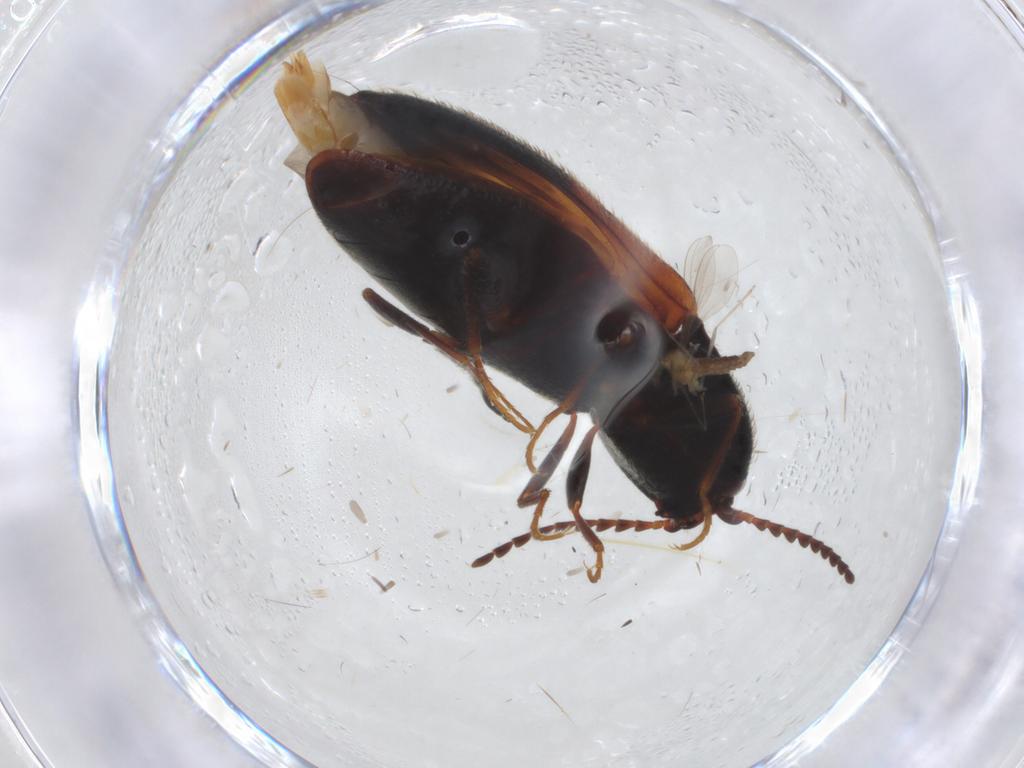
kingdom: Animalia
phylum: Arthropoda
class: Insecta
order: Coleoptera
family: Elateridae
